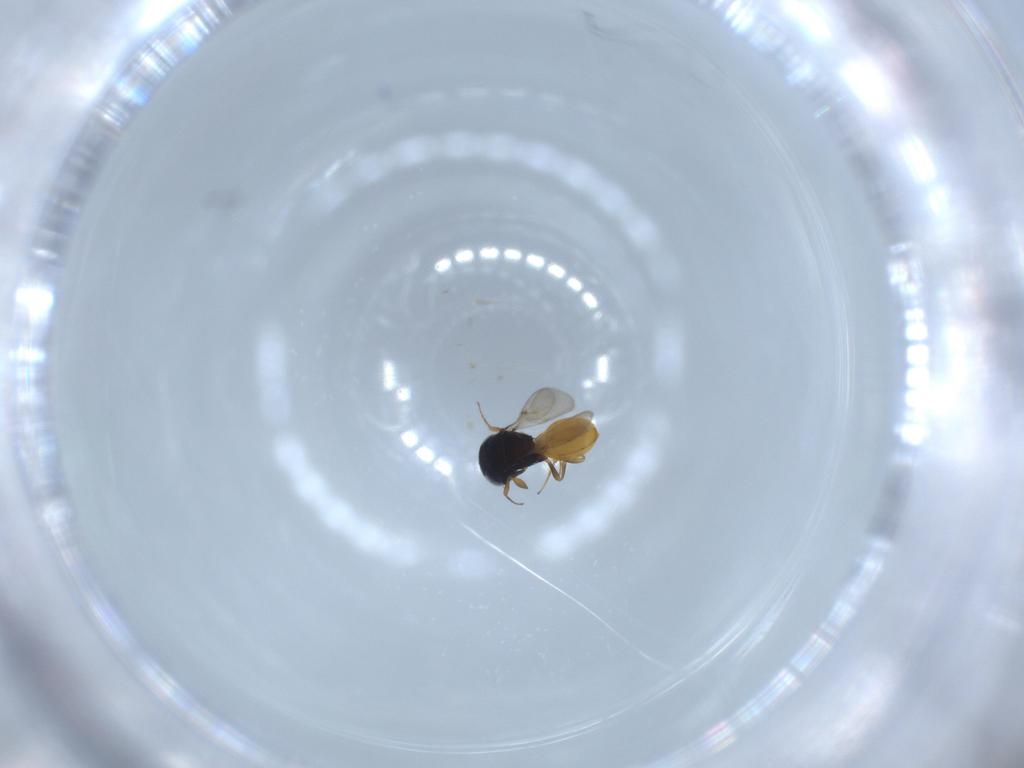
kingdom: Animalia
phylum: Arthropoda
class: Insecta
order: Hymenoptera
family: Scelionidae
